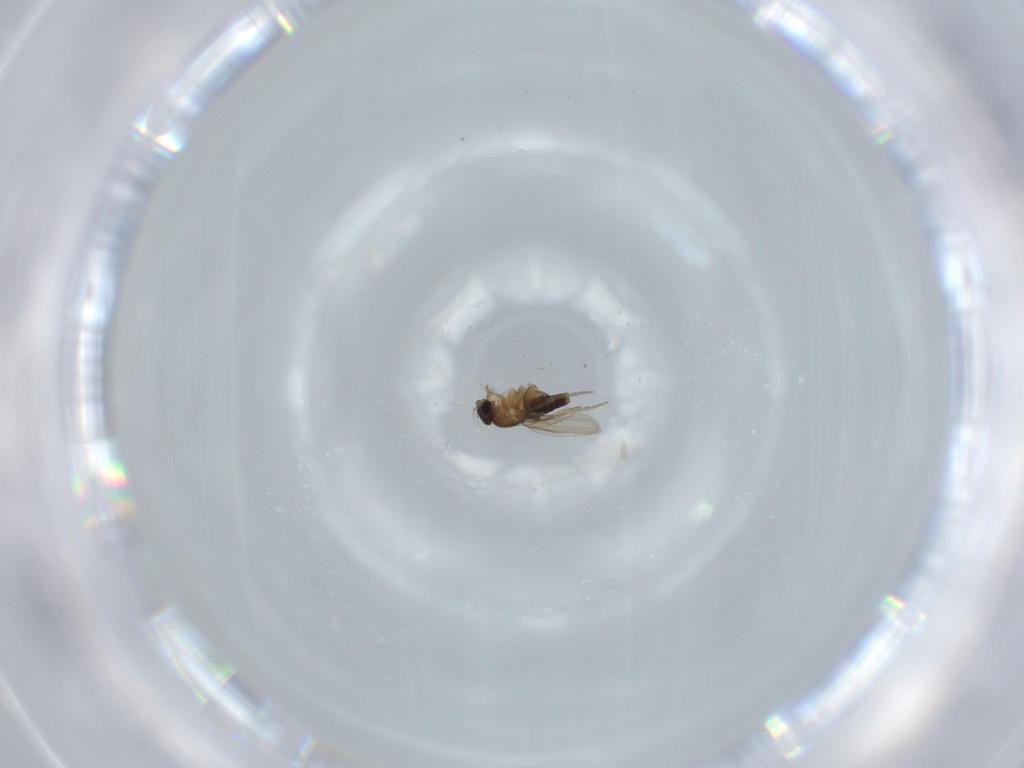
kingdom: Animalia
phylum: Arthropoda
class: Insecta
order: Diptera
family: Phoridae
